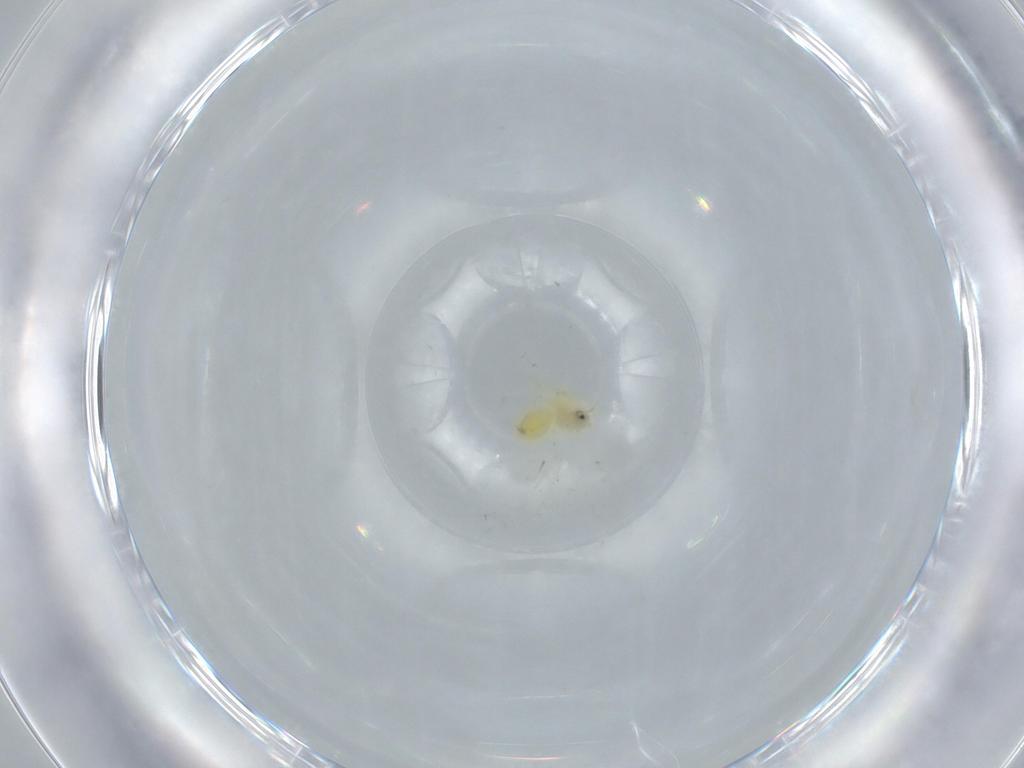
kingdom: Animalia
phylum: Arthropoda
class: Insecta
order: Hemiptera
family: Aleyrodidae
